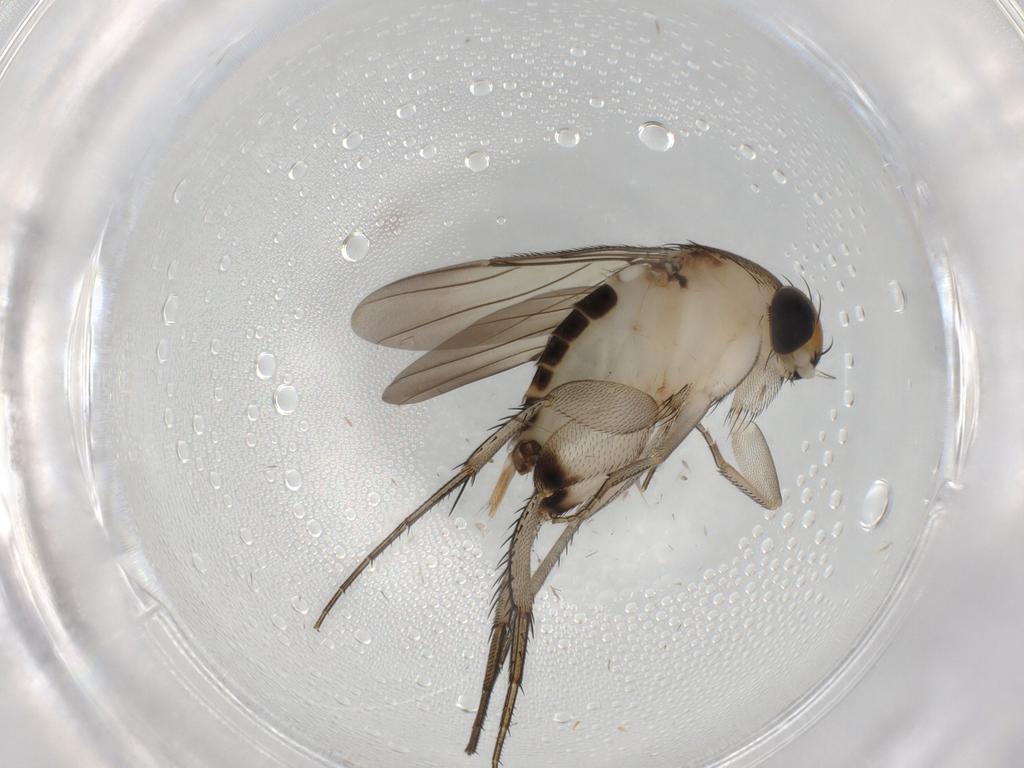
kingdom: Animalia
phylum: Arthropoda
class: Insecta
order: Diptera
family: Phoridae
